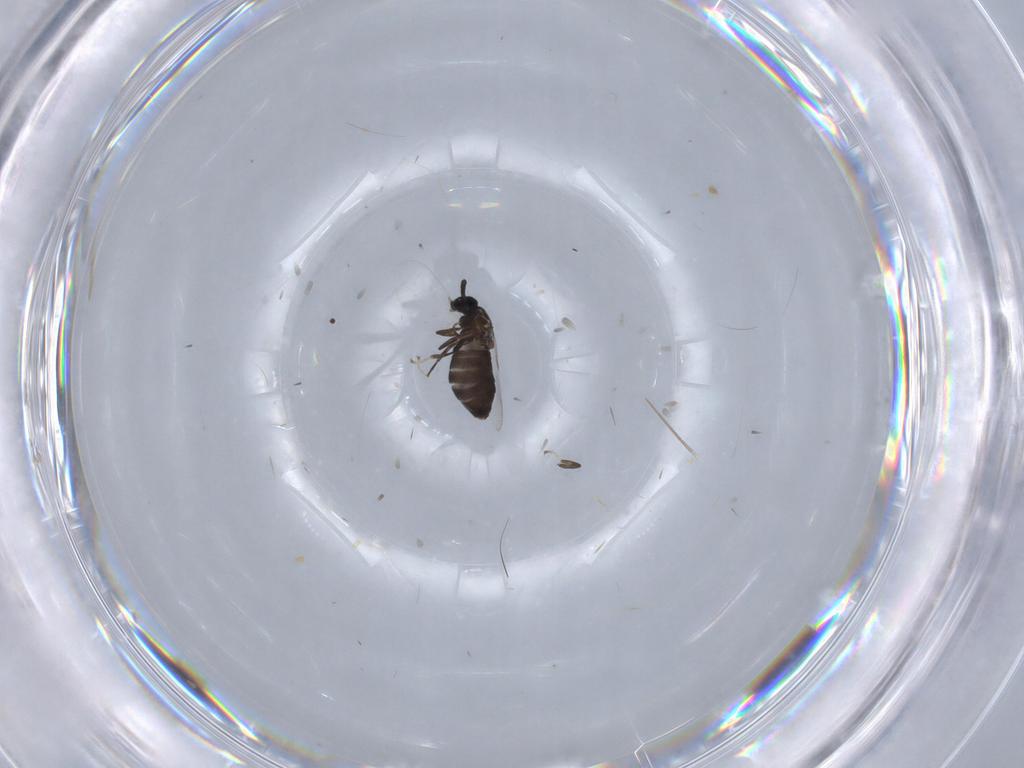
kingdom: Animalia
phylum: Arthropoda
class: Insecta
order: Diptera
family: Scatopsidae
